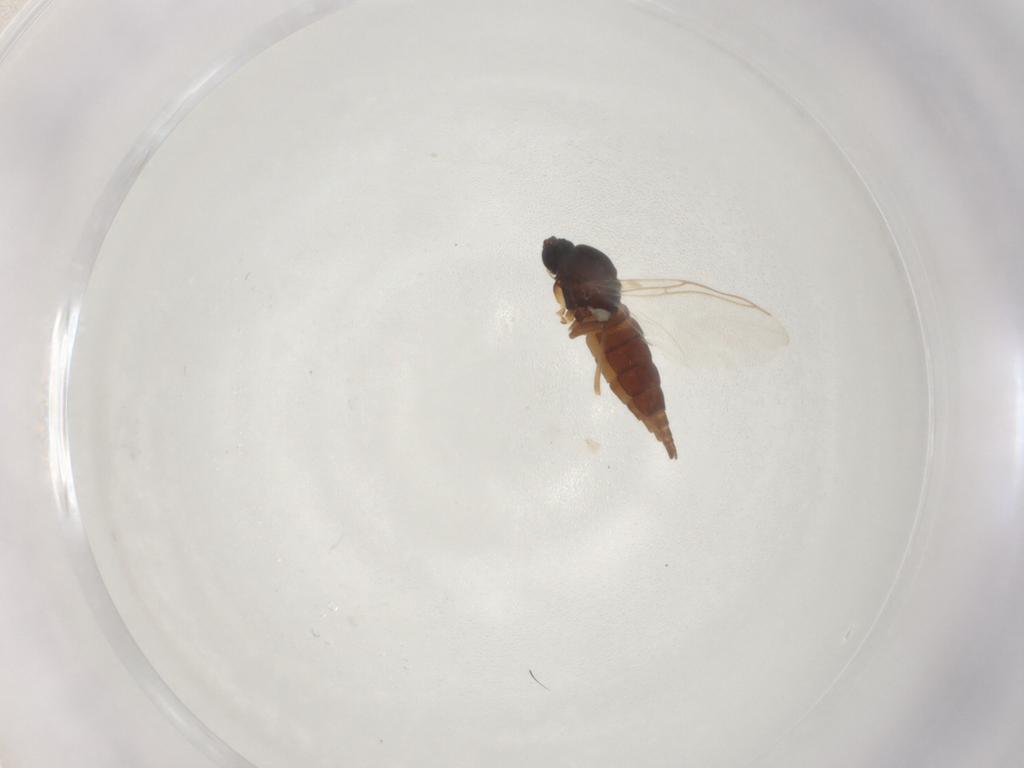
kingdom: Animalia
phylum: Arthropoda
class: Insecta
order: Diptera
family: Sciaridae
